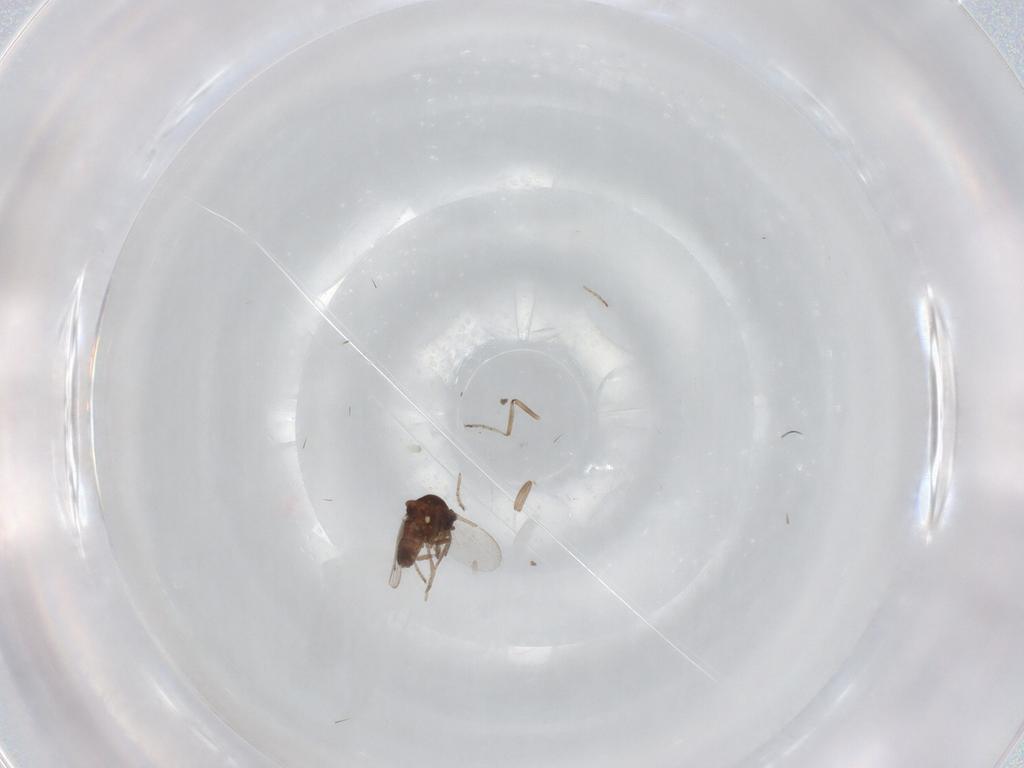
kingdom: Animalia
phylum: Arthropoda
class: Insecta
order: Diptera
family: Ceratopogonidae
